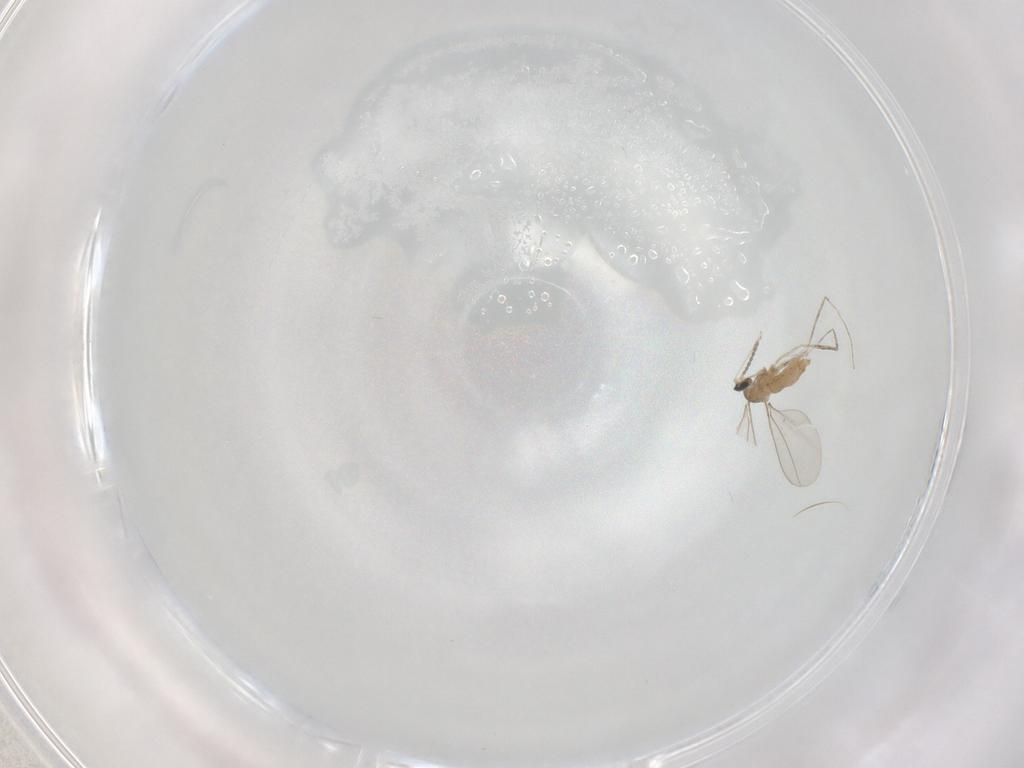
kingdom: Animalia
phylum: Arthropoda
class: Insecta
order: Diptera
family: Cecidomyiidae
